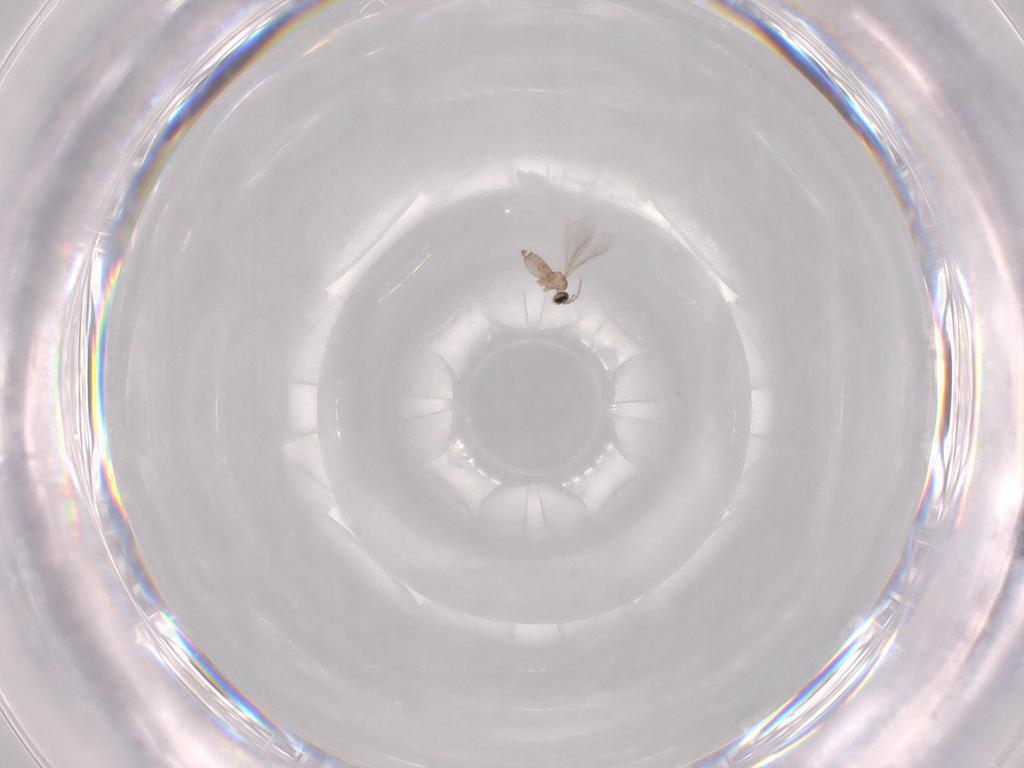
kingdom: Animalia
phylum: Arthropoda
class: Insecta
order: Diptera
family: Cecidomyiidae
